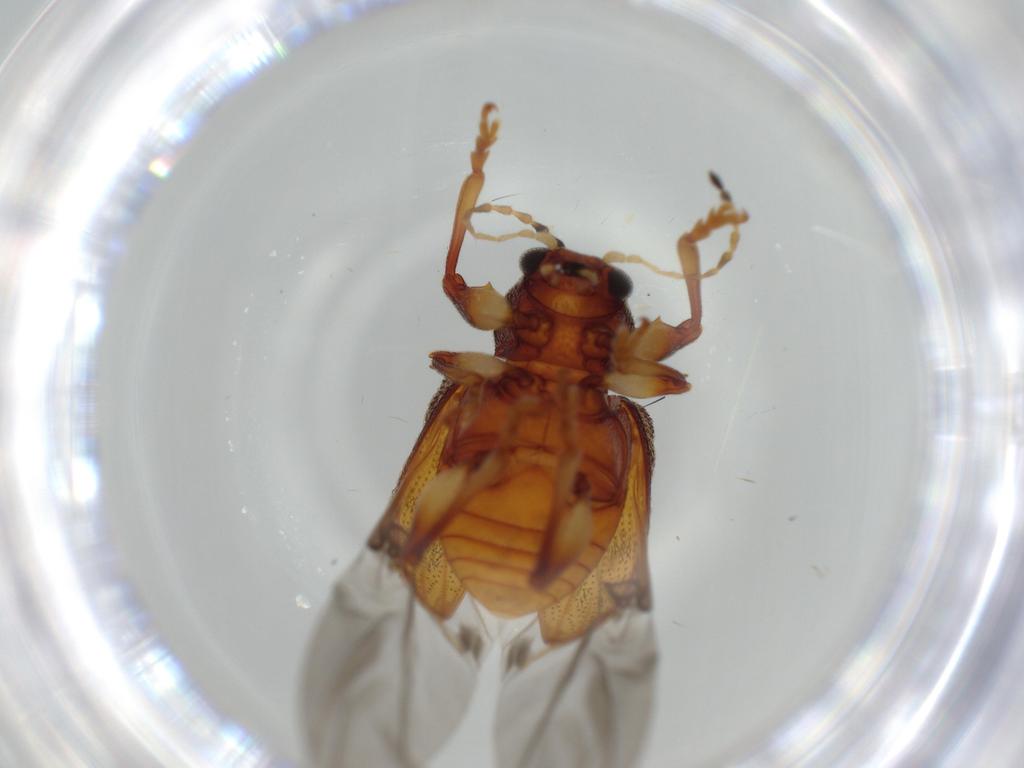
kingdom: Animalia
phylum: Arthropoda
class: Insecta
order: Coleoptera
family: Chrysomelidae
